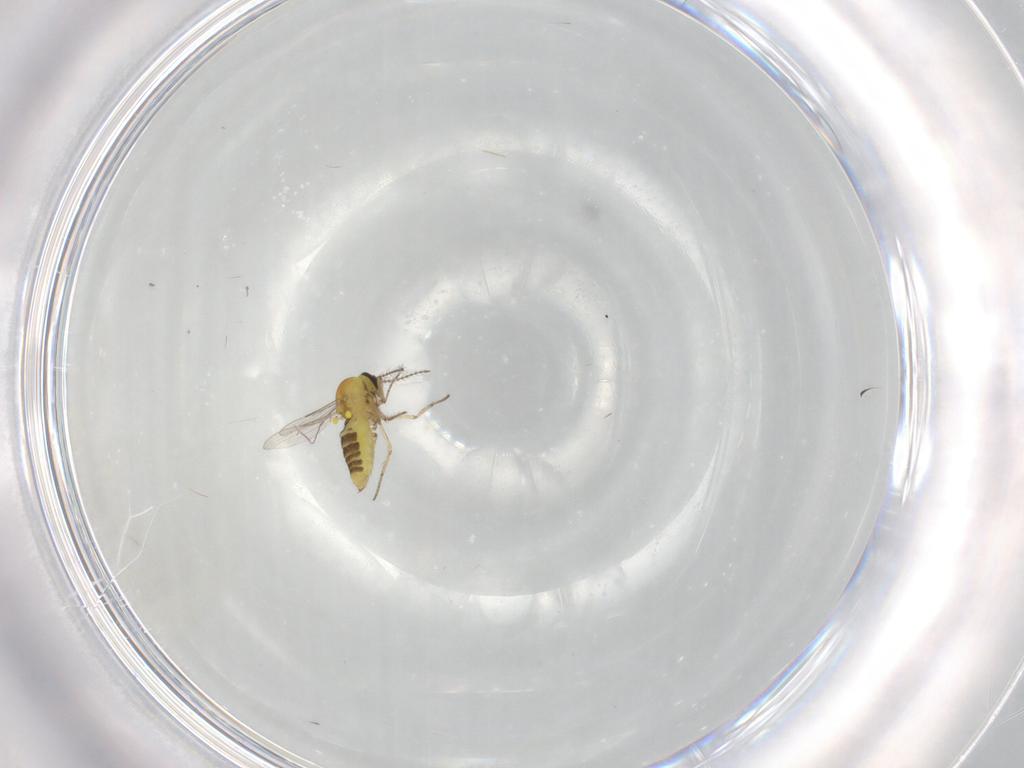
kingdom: Animalia
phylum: Arthropoda
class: Insecta
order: Diptera
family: Ceratopogonidae
